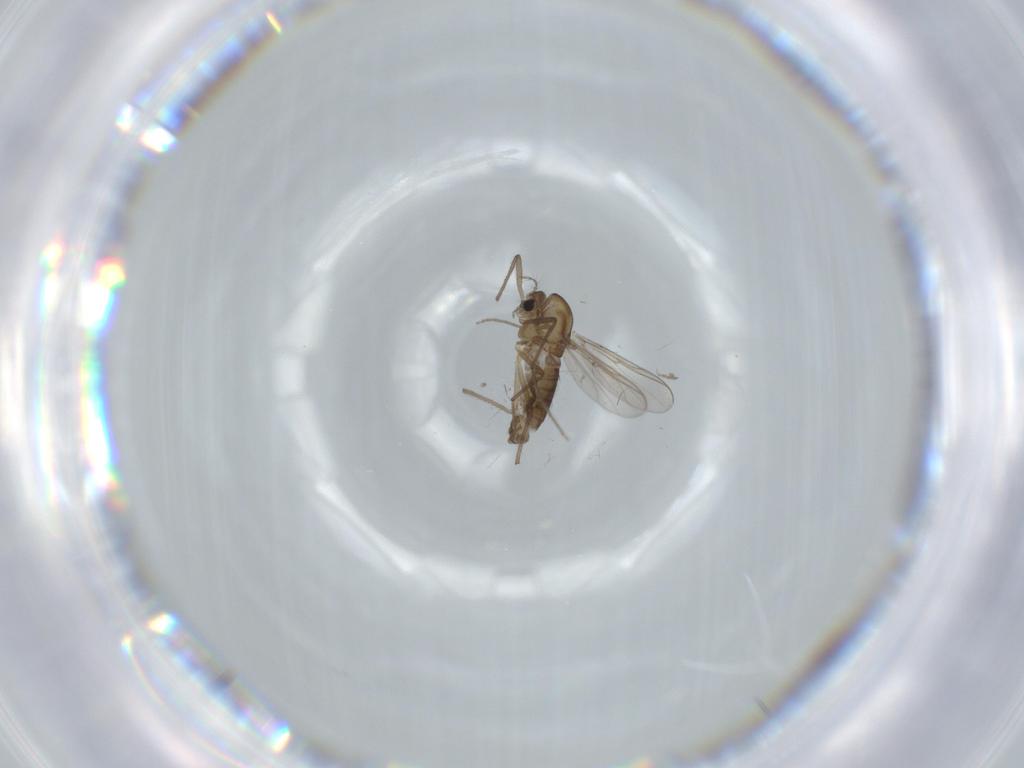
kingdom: Animalia
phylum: Arthropoda
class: Insecta
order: Diptera
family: Chironomidae
